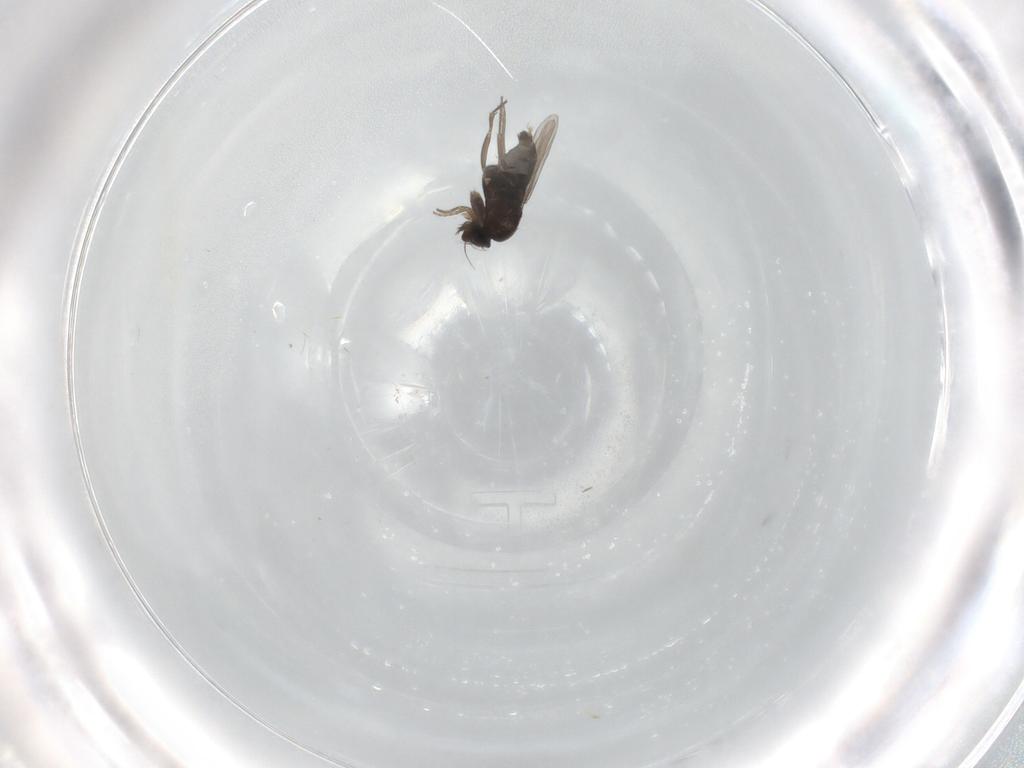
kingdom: Animalia
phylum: Arthropoda
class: Insecta
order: Diptera
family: Phoridae
